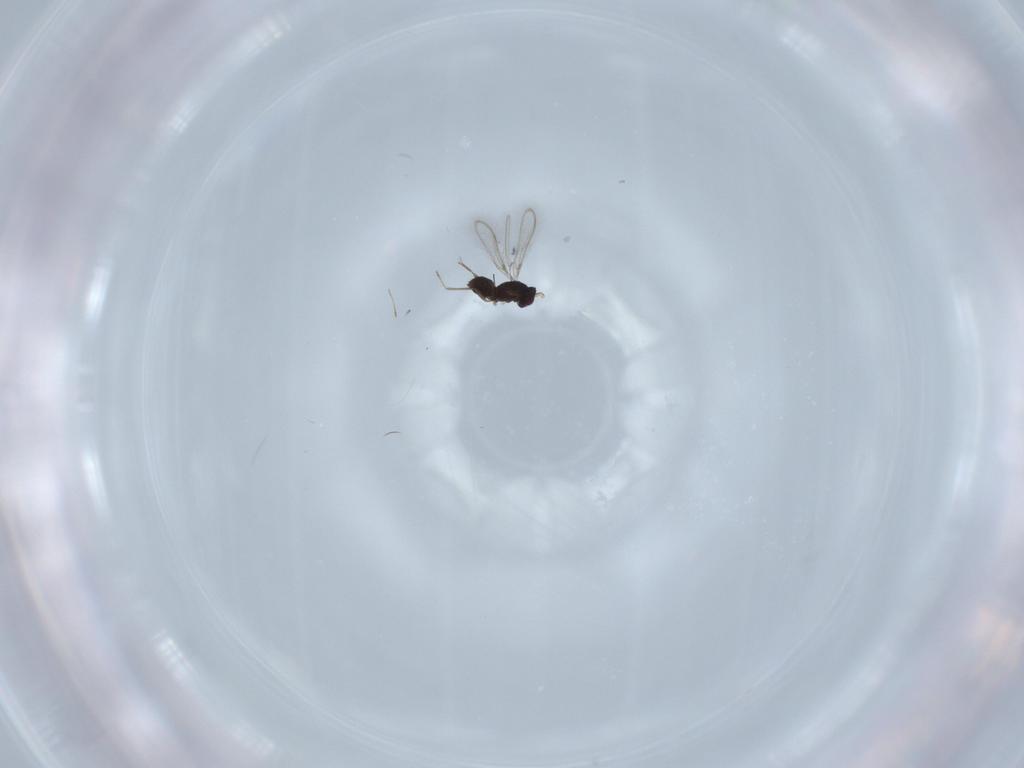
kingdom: Animalia
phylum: Arthropoda
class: Insecta
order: Hymenoptera
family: Mymaridae
